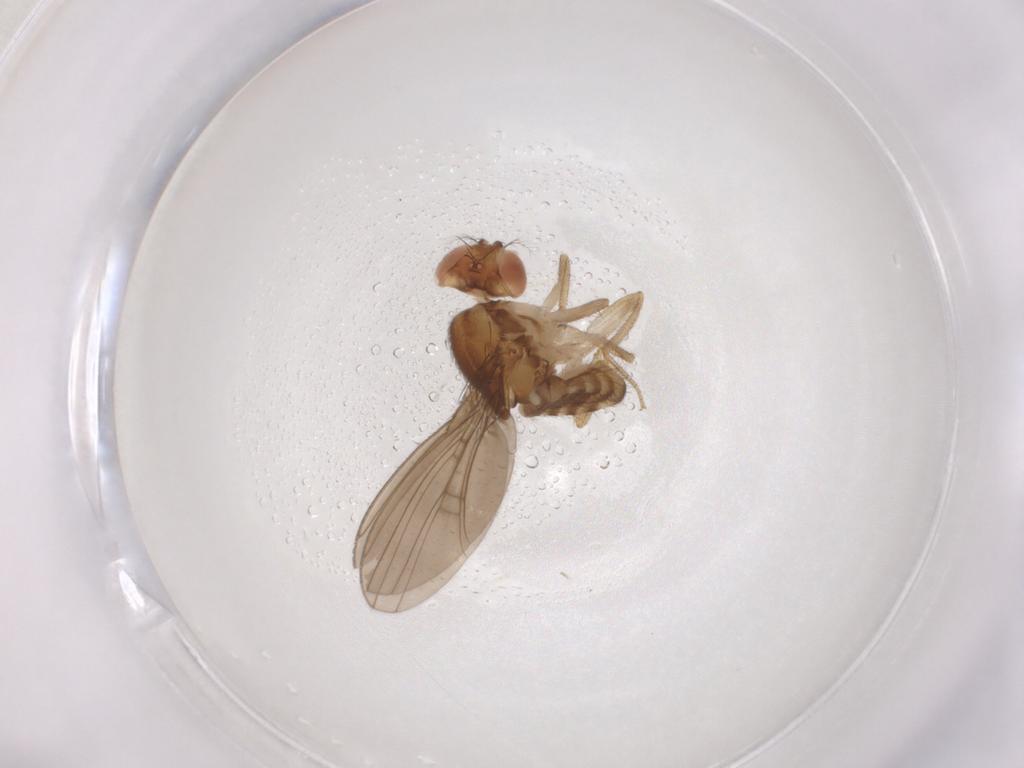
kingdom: Animalia
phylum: Arthropoda
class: Insecta
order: Diptera
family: Muscidae
